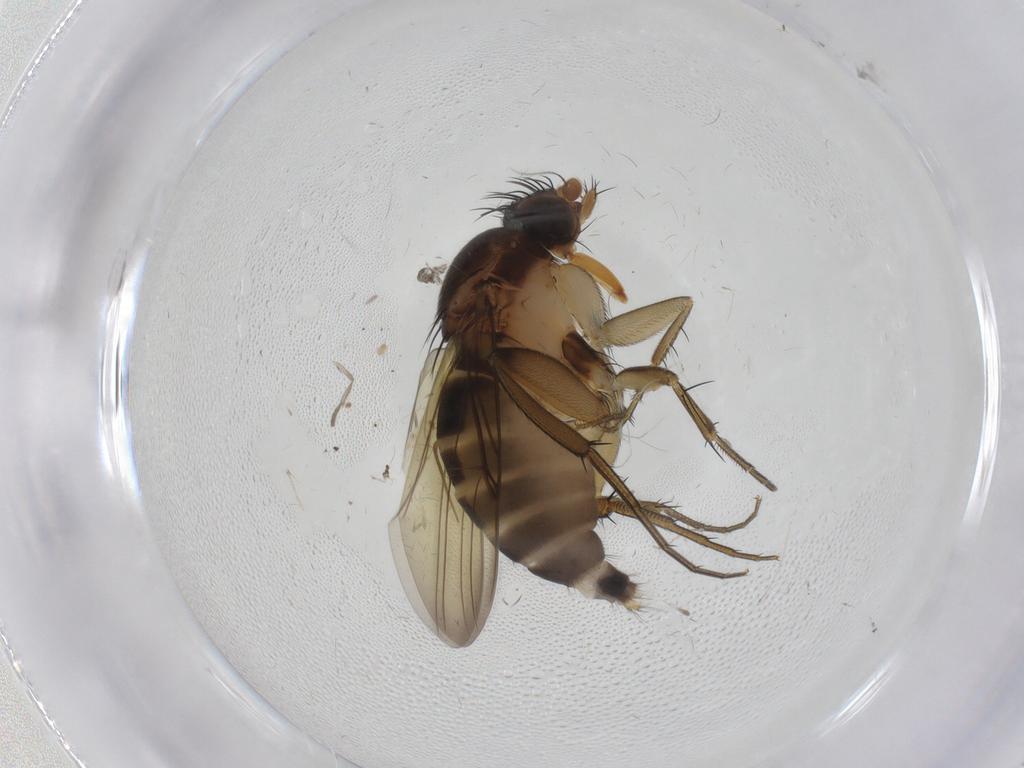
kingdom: Animalia
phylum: Arthropoda
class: Insecta
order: Diptera
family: Phoridae
